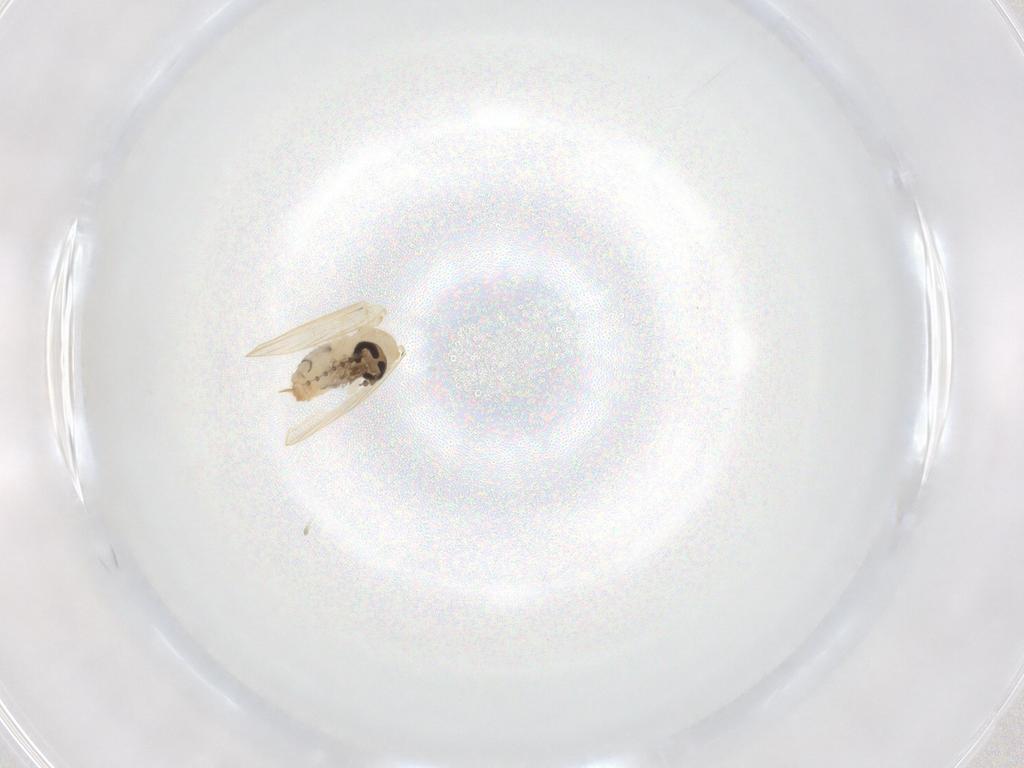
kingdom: Animalia
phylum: Arthropoda
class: Insecta
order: Diptera
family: Psychodidae
